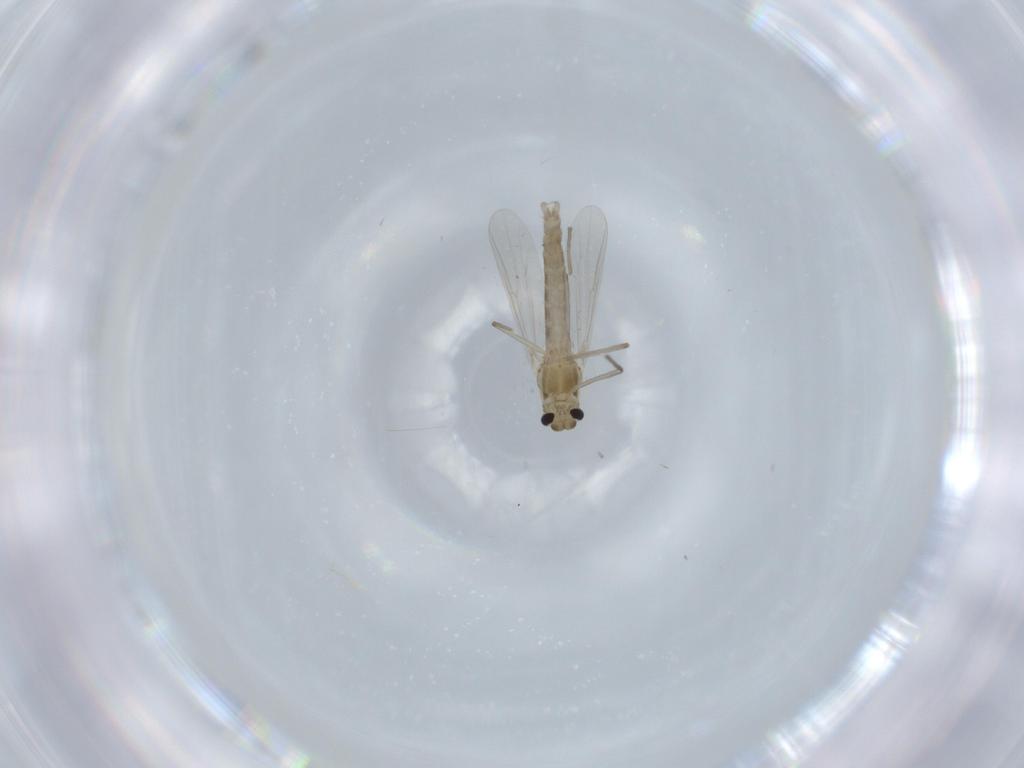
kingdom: Animalia
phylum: Arthropoda
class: Insecta
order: Diptera
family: Chironomidae
